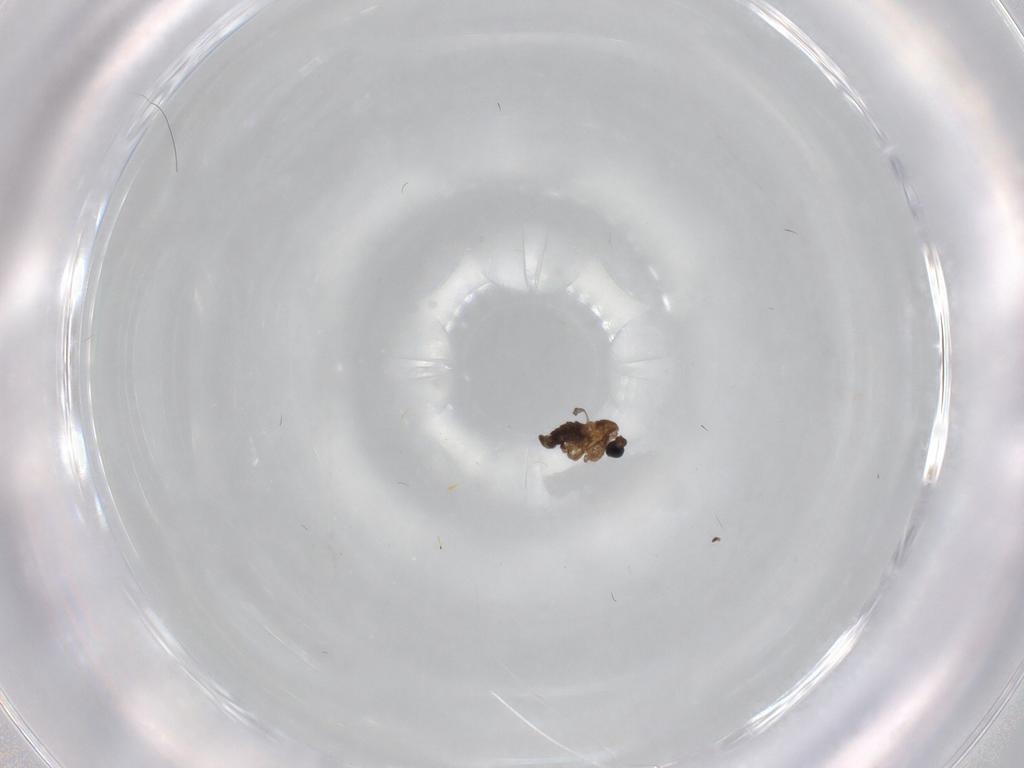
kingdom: Animalia
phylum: Arthropoda
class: Insecta
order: Diptera
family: Sciaridae
